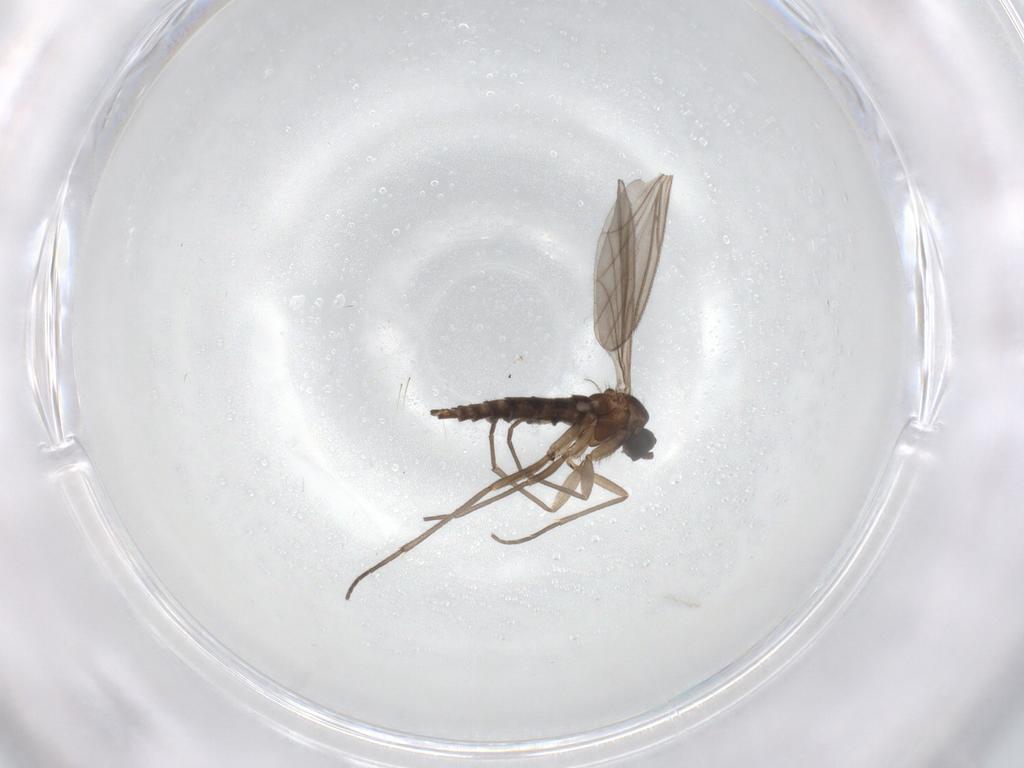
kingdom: Animalia
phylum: Arthropoda
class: Insecta
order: Diptera
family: Sciaridae
